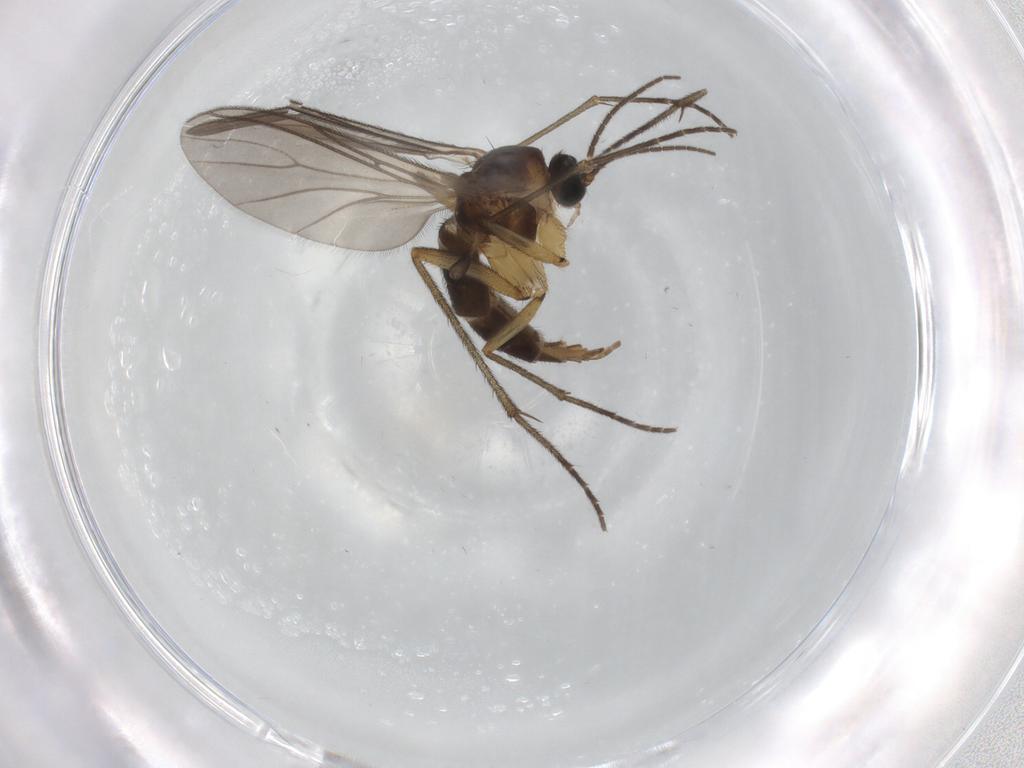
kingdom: Animalia
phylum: Arthropoda
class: Insecta
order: Diptera
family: Sciaridae
